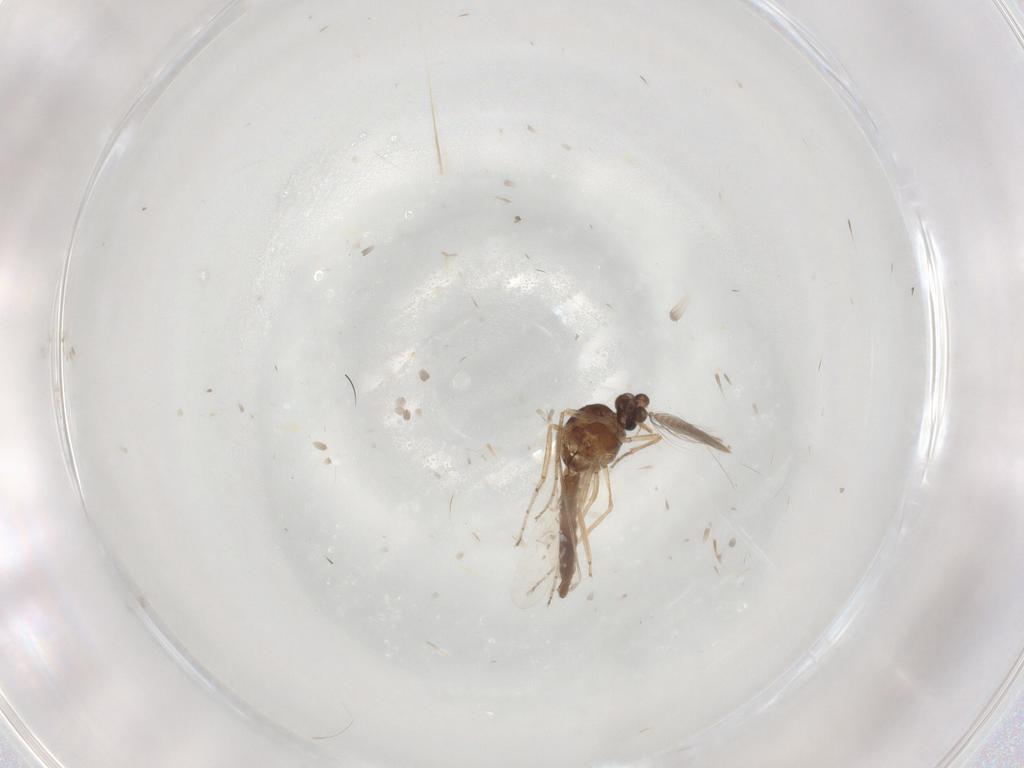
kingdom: Animalia
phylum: Arthropoda
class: Insecta
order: Diptera
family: Ceratopogonidae
